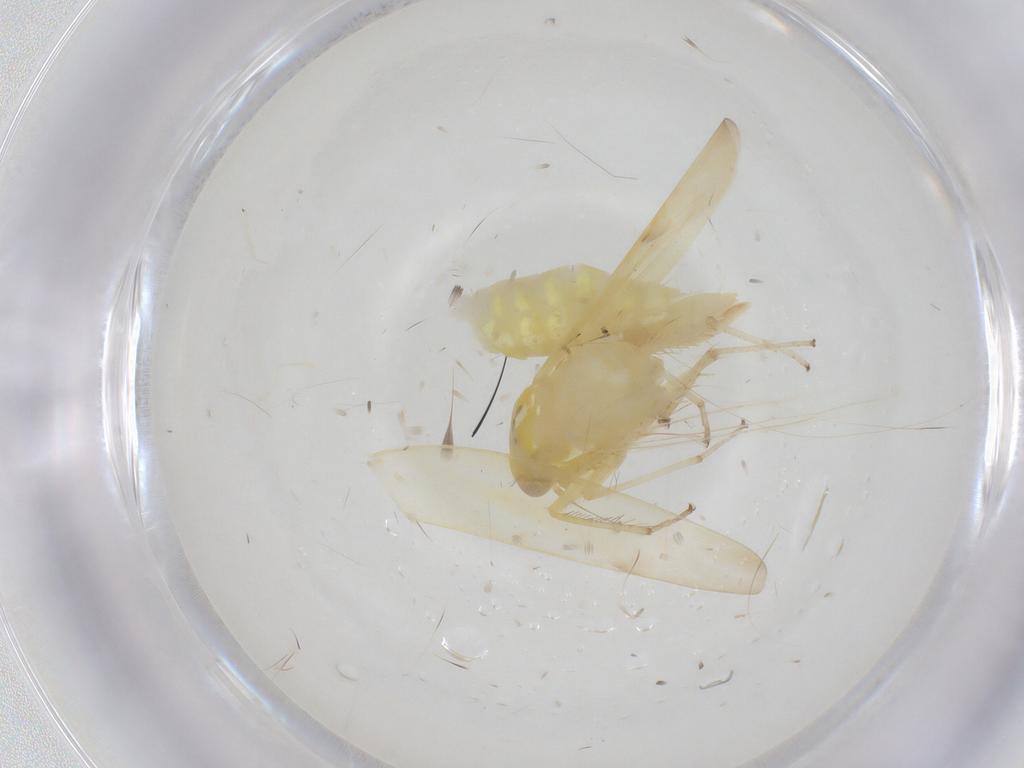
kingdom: Animalia
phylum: Arthropoda
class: Insecta
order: Hemiptera
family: Cicadellidae
